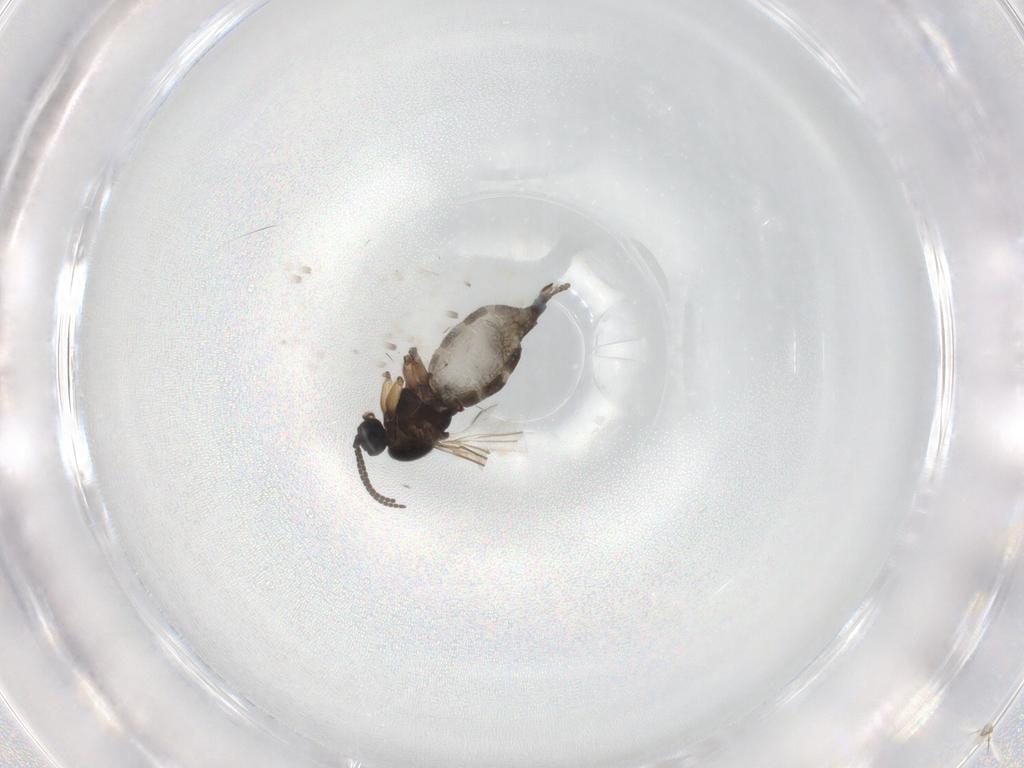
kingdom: Animalia
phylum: Arthropoda
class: Insecta
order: Diptera
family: Sciaridae
